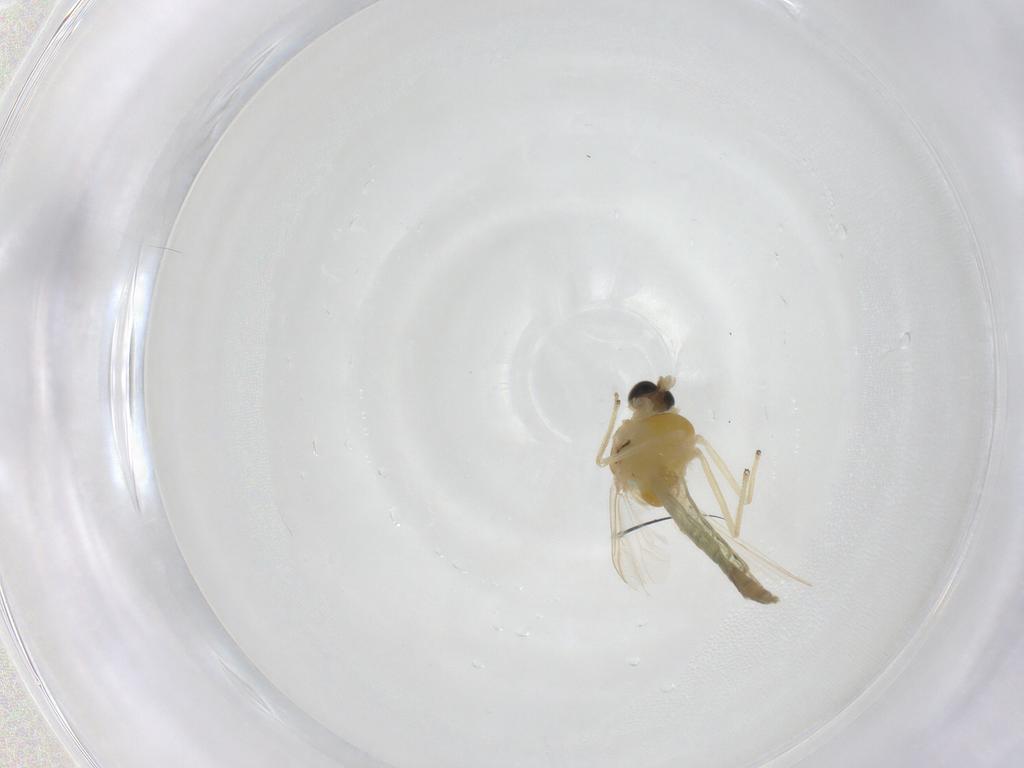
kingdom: Animalia
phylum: Arthropoda
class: Insecta
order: Diptera
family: Chironomidae
